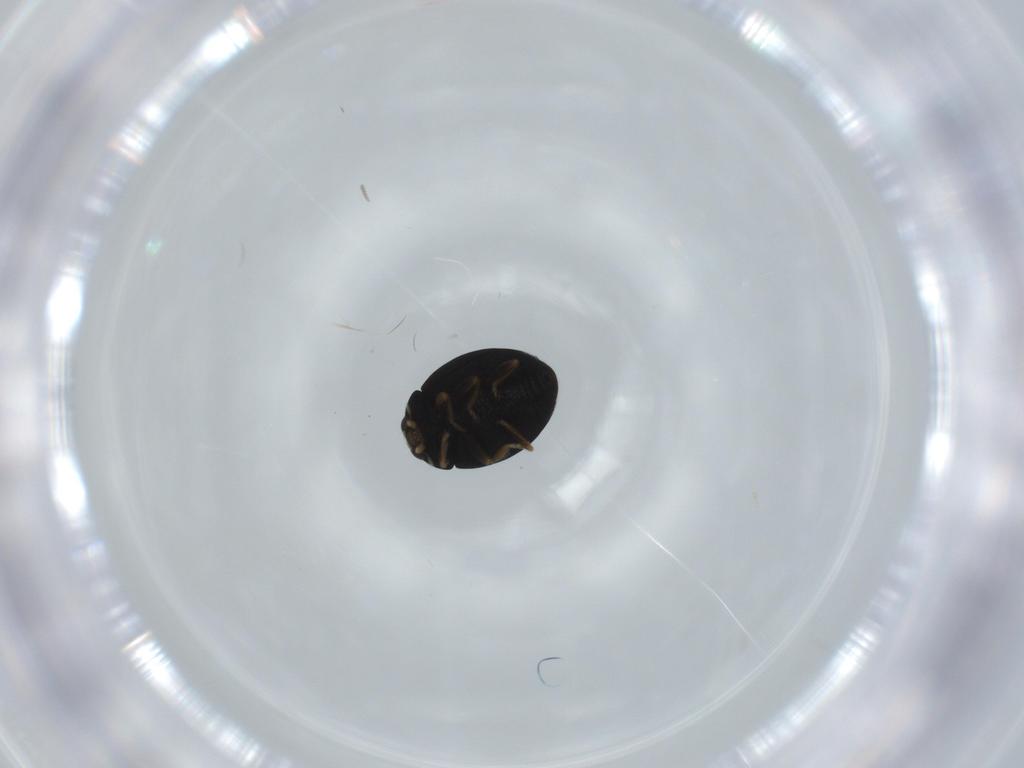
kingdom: Animalia
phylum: Arthropoda
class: Insecta
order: Coleoptera
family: Coccinellidae
